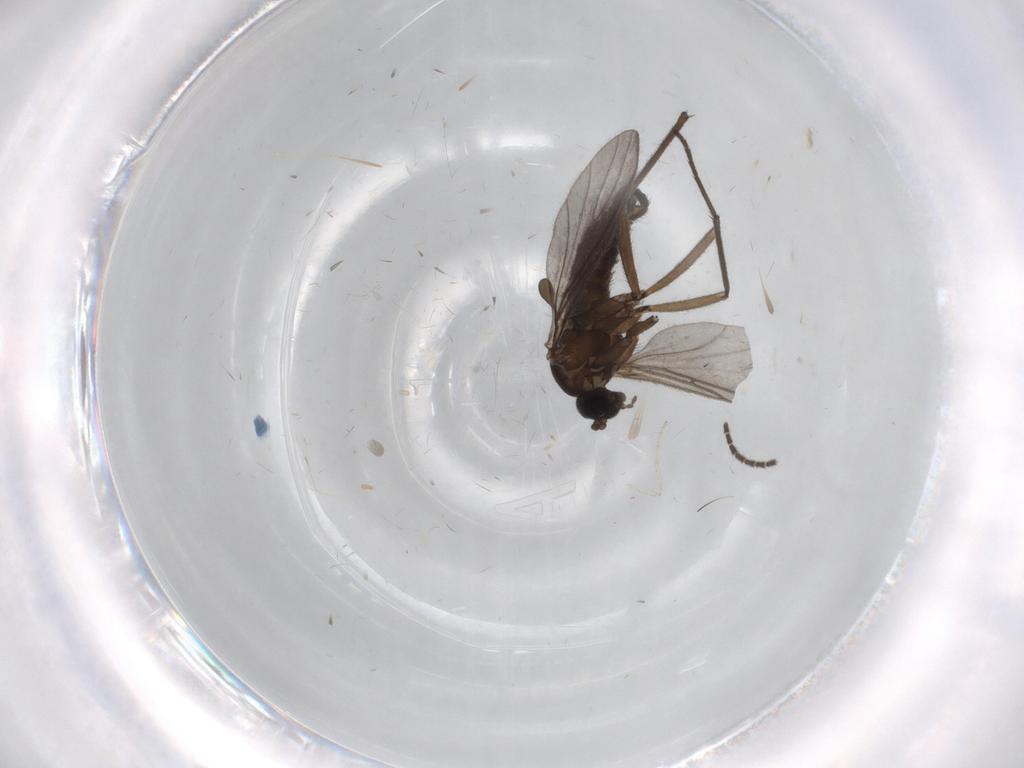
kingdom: Animalia
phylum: Arthropoda
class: Insecta
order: Diptera
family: Sciaridae
